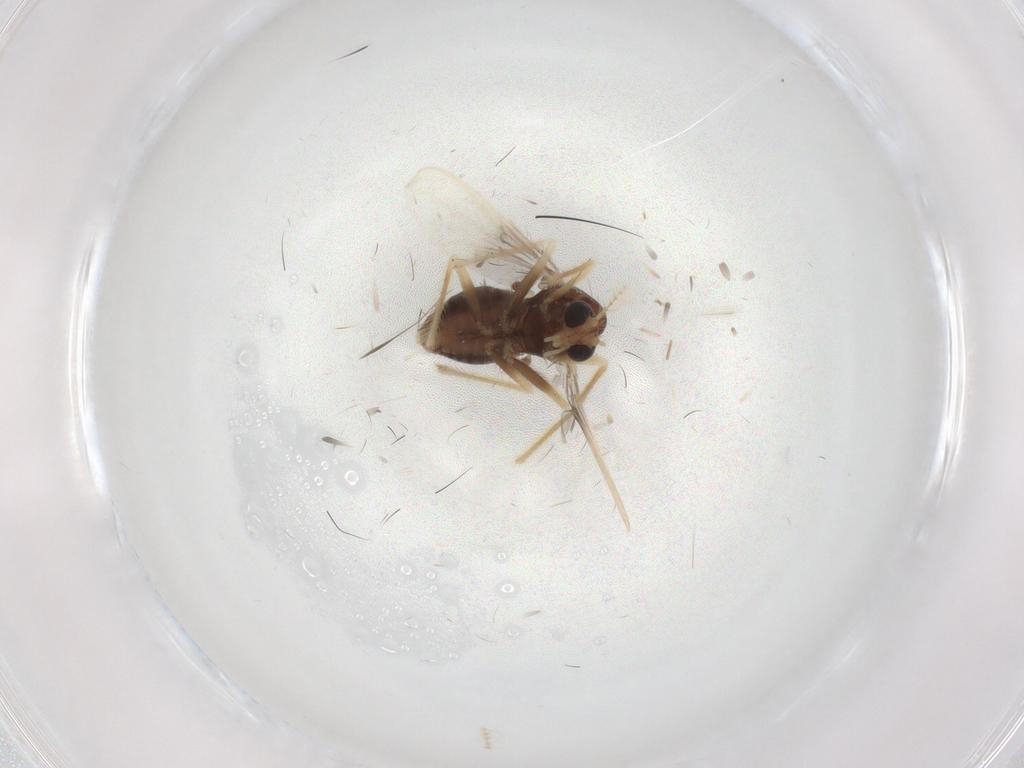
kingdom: Animalia
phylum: Arthropoda
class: Insecta
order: Diptera
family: Chironomidae
